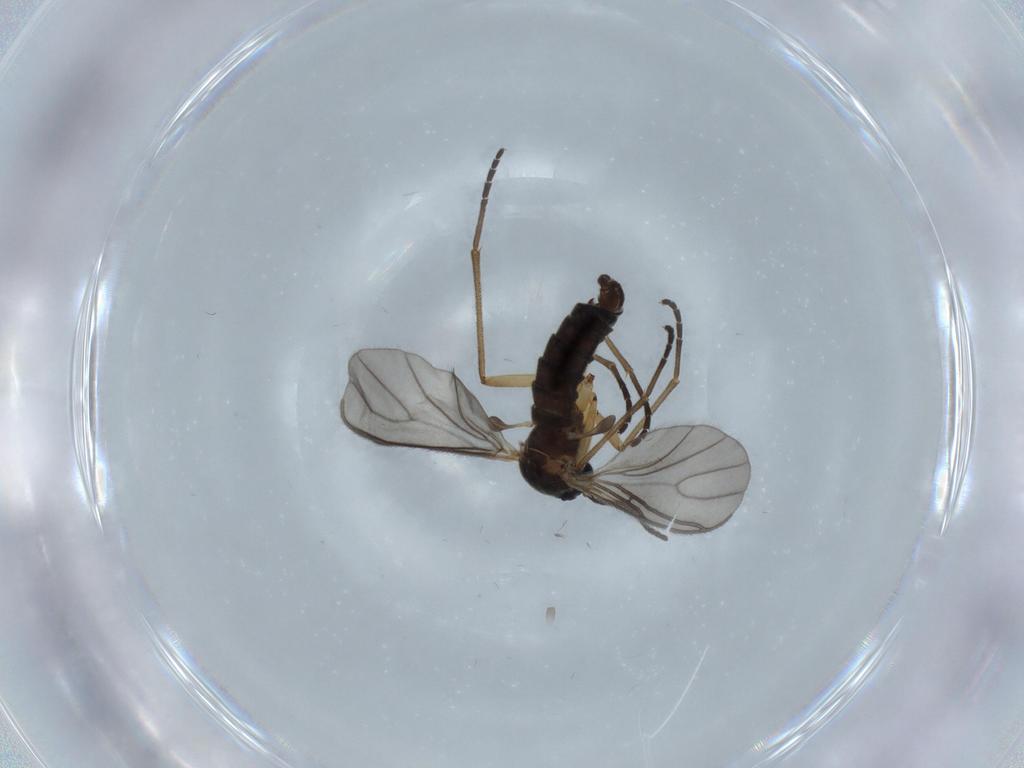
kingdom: Animalia
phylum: Arthropoda
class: Insecta
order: Diptera
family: Sciaridae
